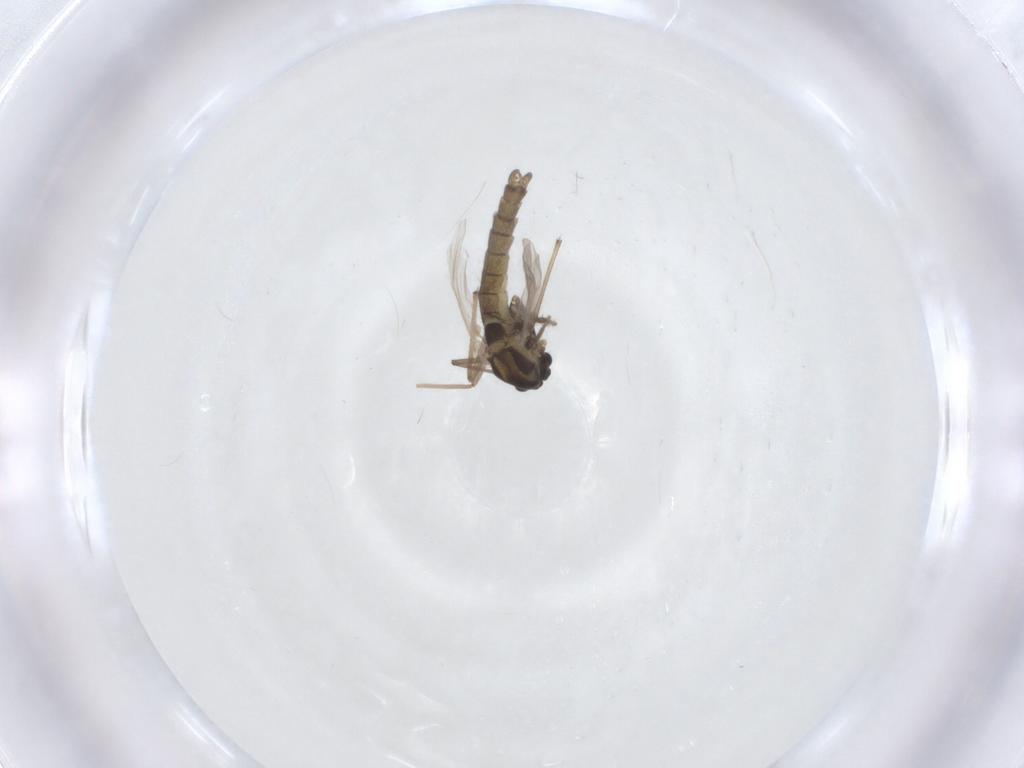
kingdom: Animalia
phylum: Arthropoda
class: Insecta
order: Diptera
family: Chironomidae
